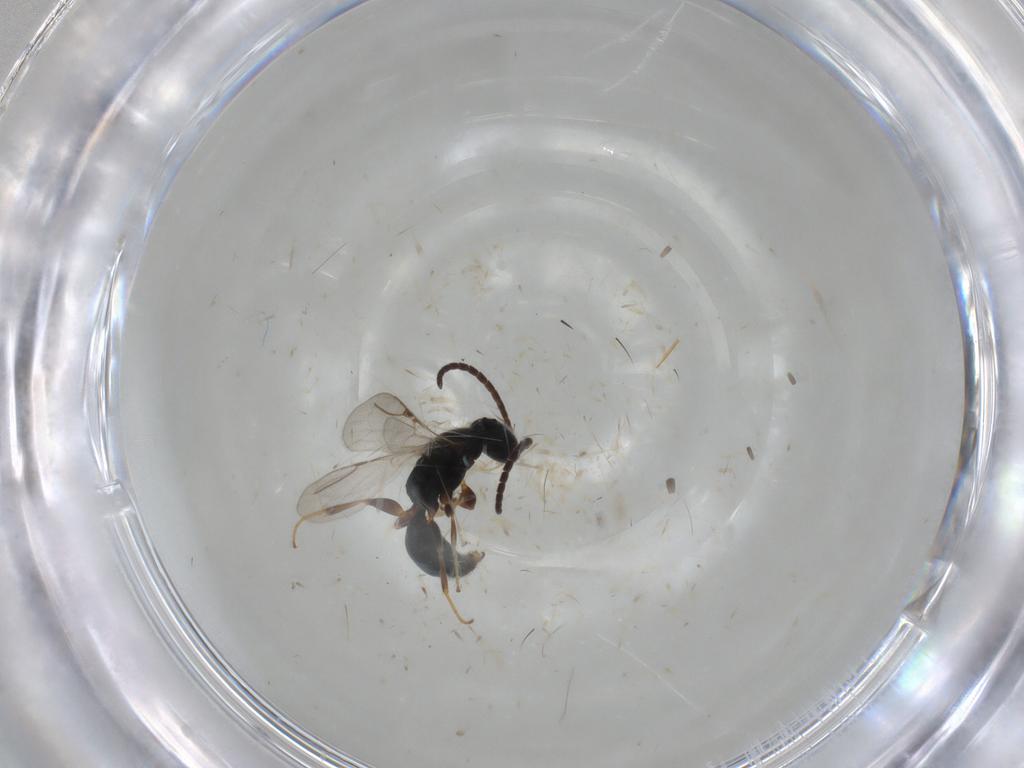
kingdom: Animalia
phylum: Arthropoda
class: Insecta
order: Hymenoptera
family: Bethylidae
